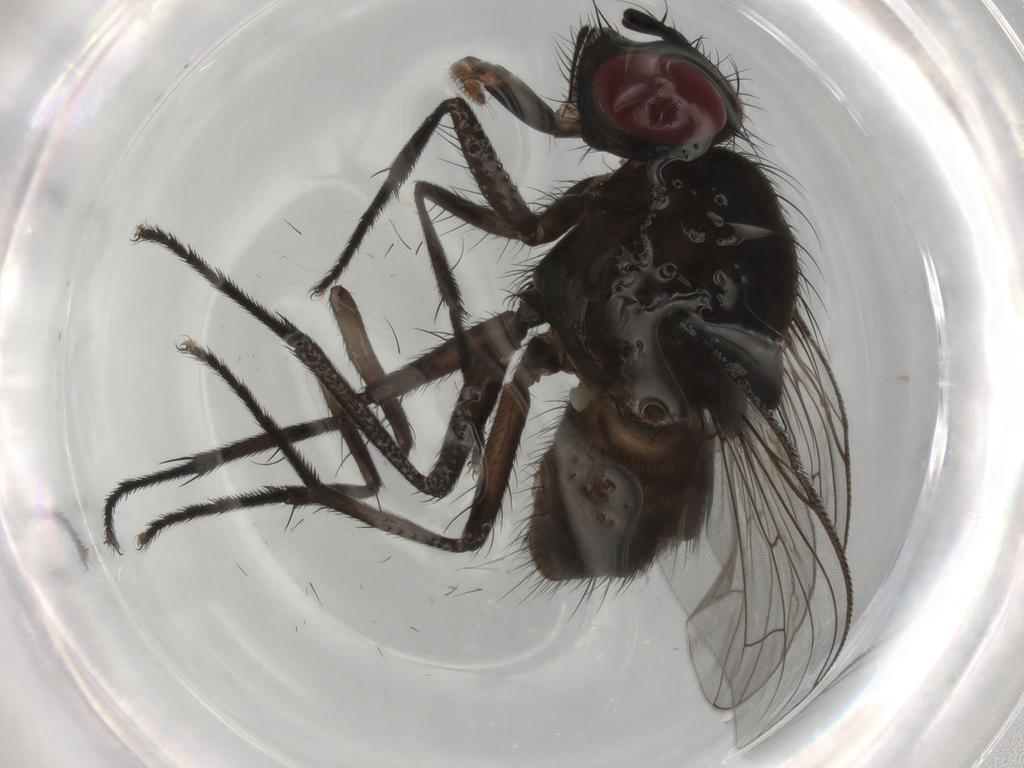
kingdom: Animalia
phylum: Arthropoda
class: Insecta
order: Diptera
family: Muscidae
